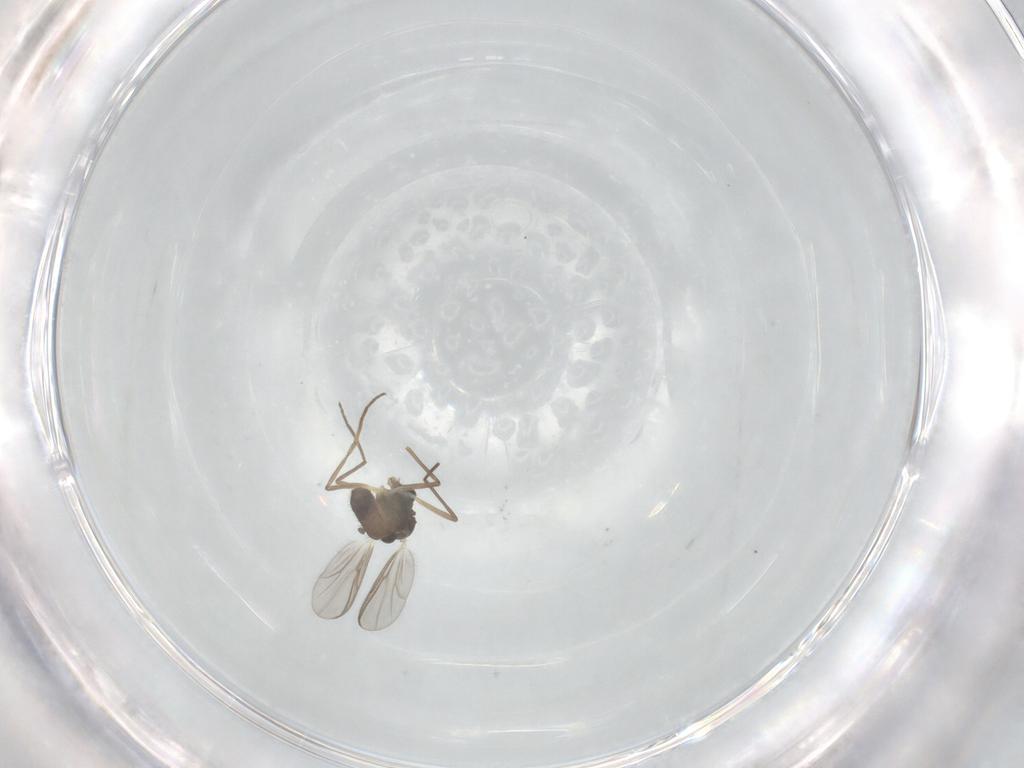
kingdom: Animalia
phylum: Arthropoda
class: Insecta
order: Diptera
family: Chironomidae
